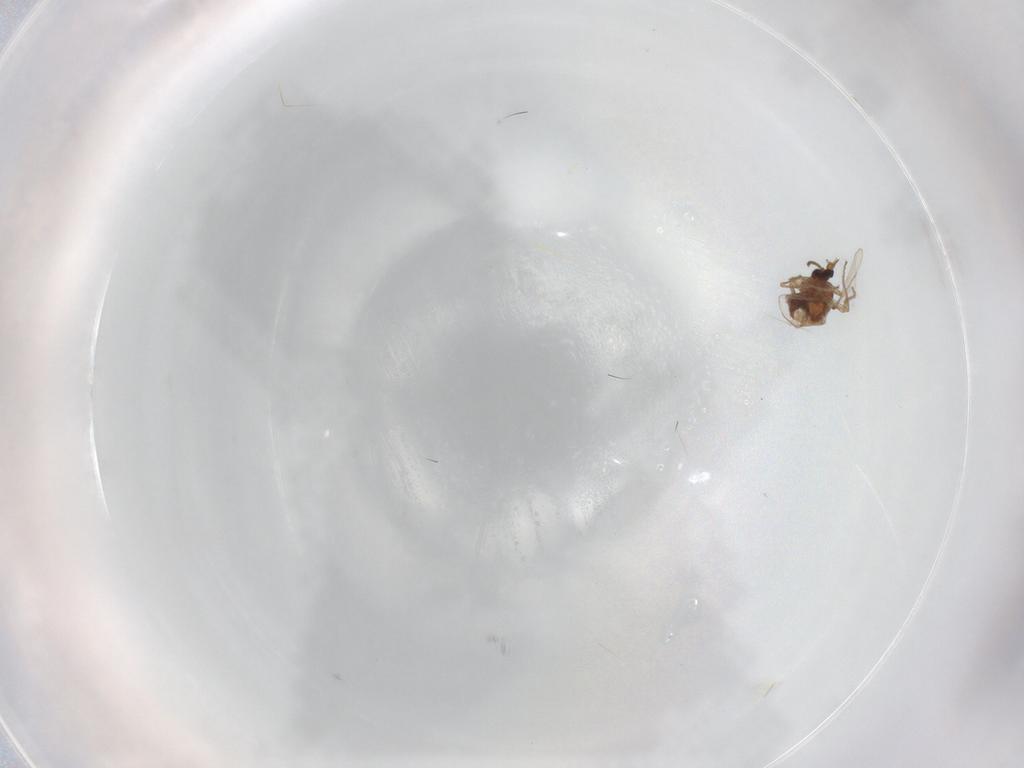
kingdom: Animalia
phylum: Arthropoda
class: Insecta
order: Diptera
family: Ceratopogonidae
